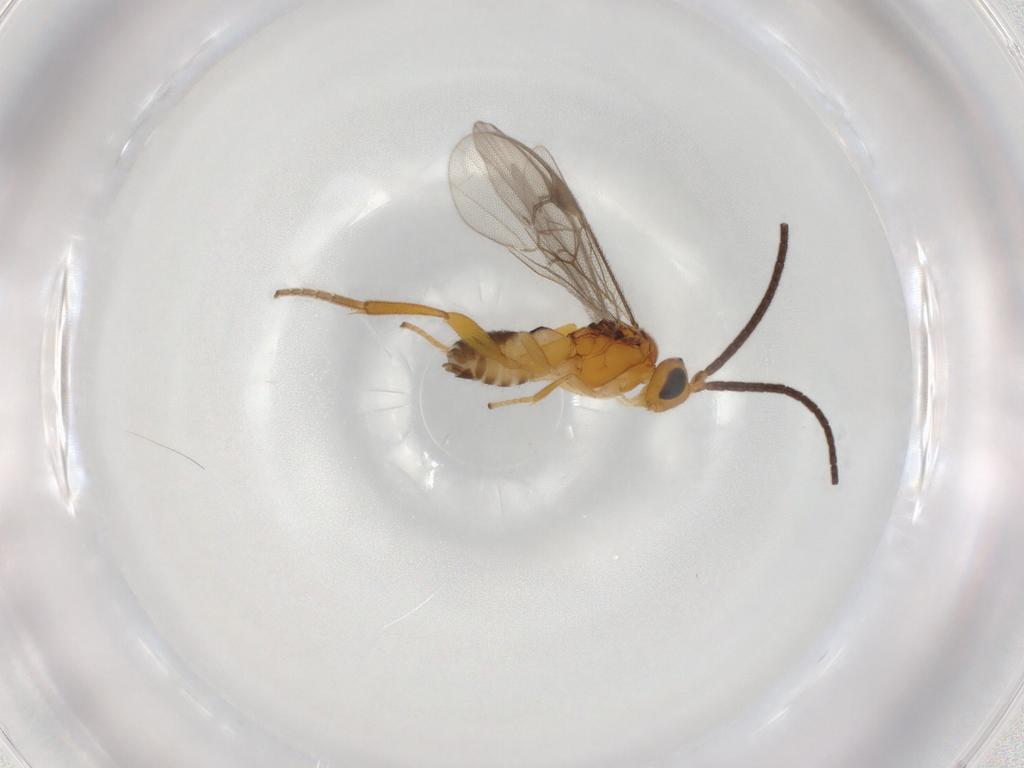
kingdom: Animalia
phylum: Arthropoda
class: Insecta
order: Hymenoptera
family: Braconidae
